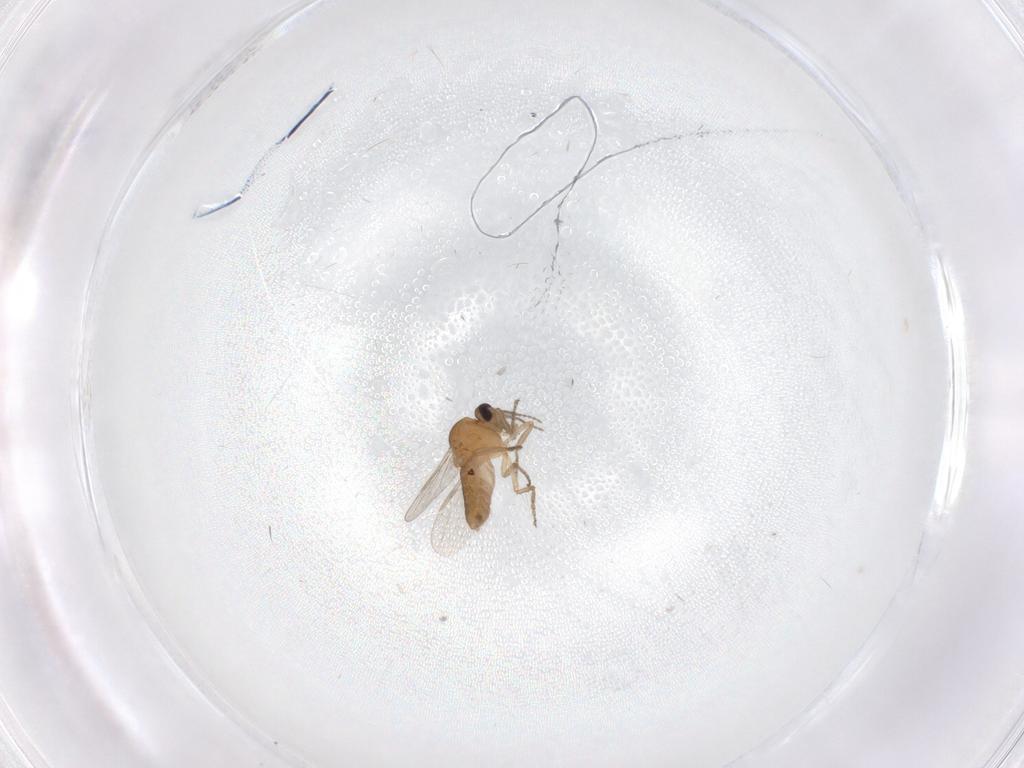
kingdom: Animalia
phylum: Arthropoda
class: Insecta
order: Diptera
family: Ceratopogonidae
